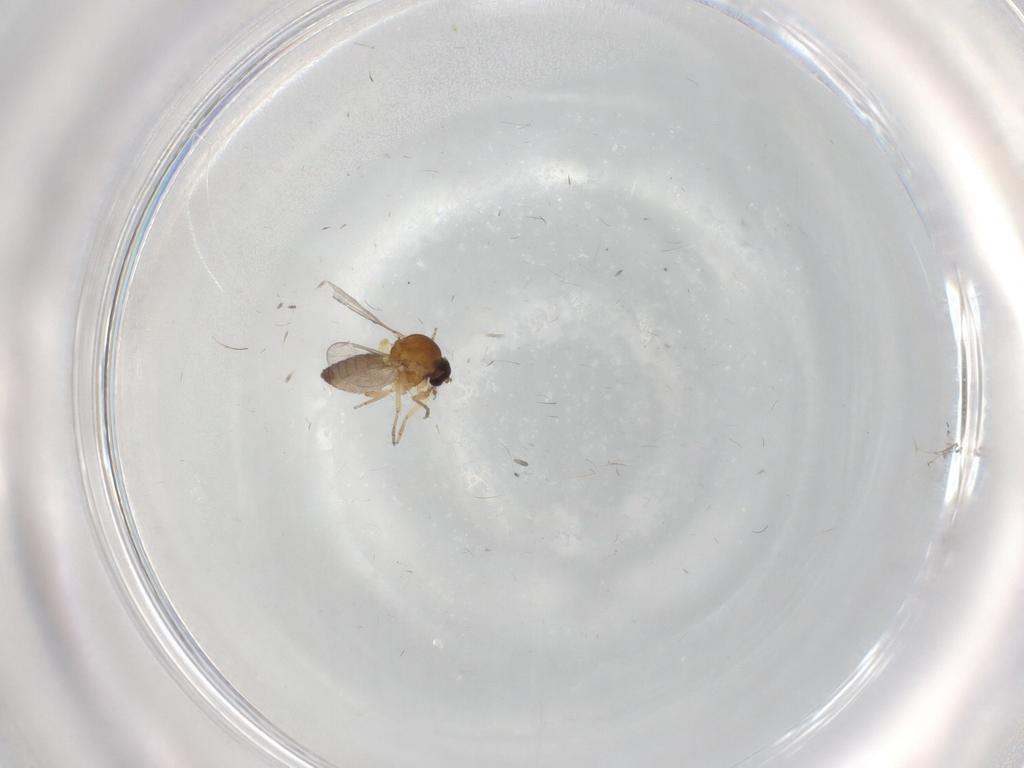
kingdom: Animalia
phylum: Arthropoda
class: Insecta
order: Diptera
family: Ceratopogonidae
